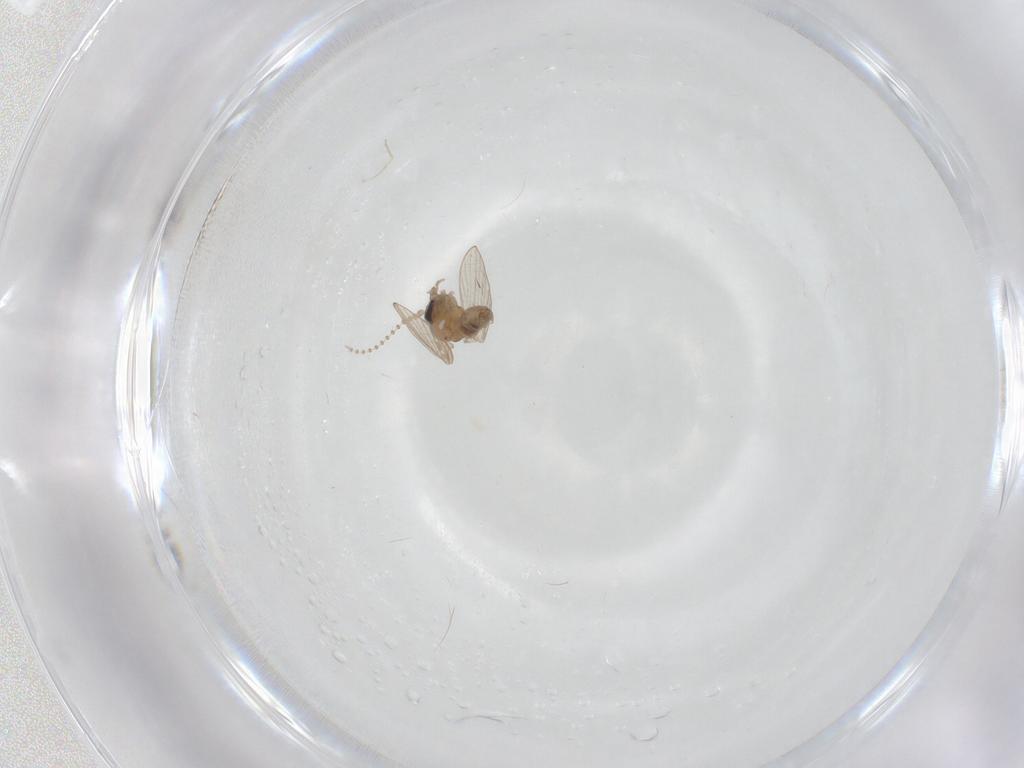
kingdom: Animalia
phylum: Arthropoda
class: Insecta
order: Diptera
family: Psychodidae
